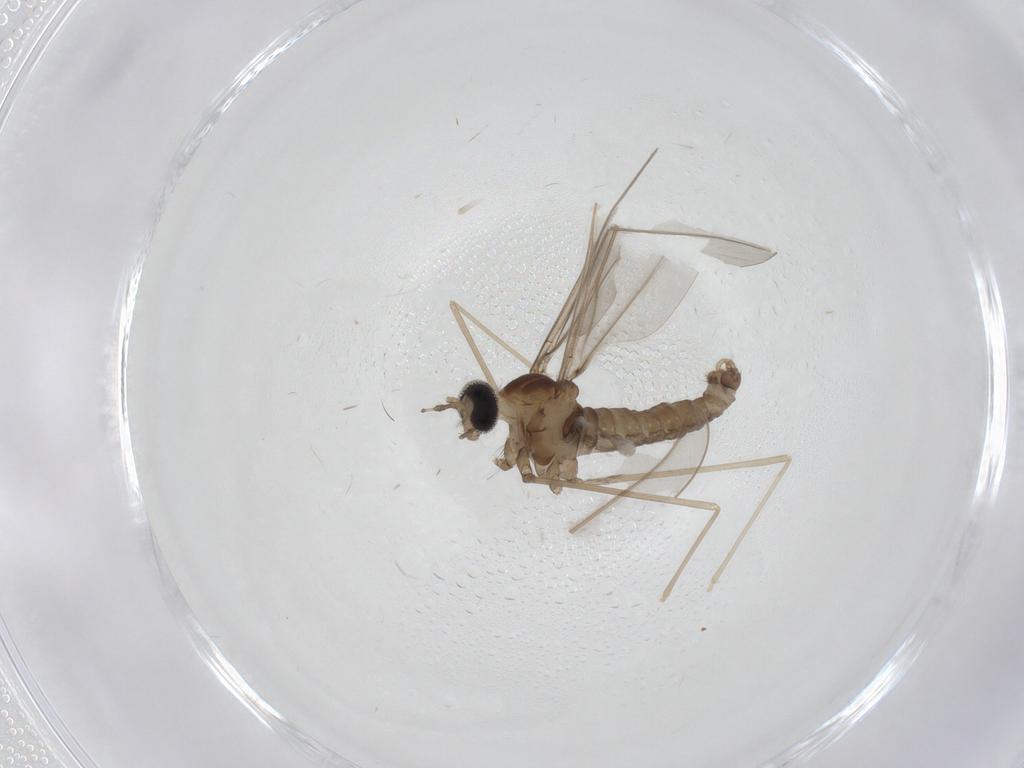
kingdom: Animalia
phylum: Arthropoda
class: Insecta
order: Diptera
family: Cecidomyiidae
